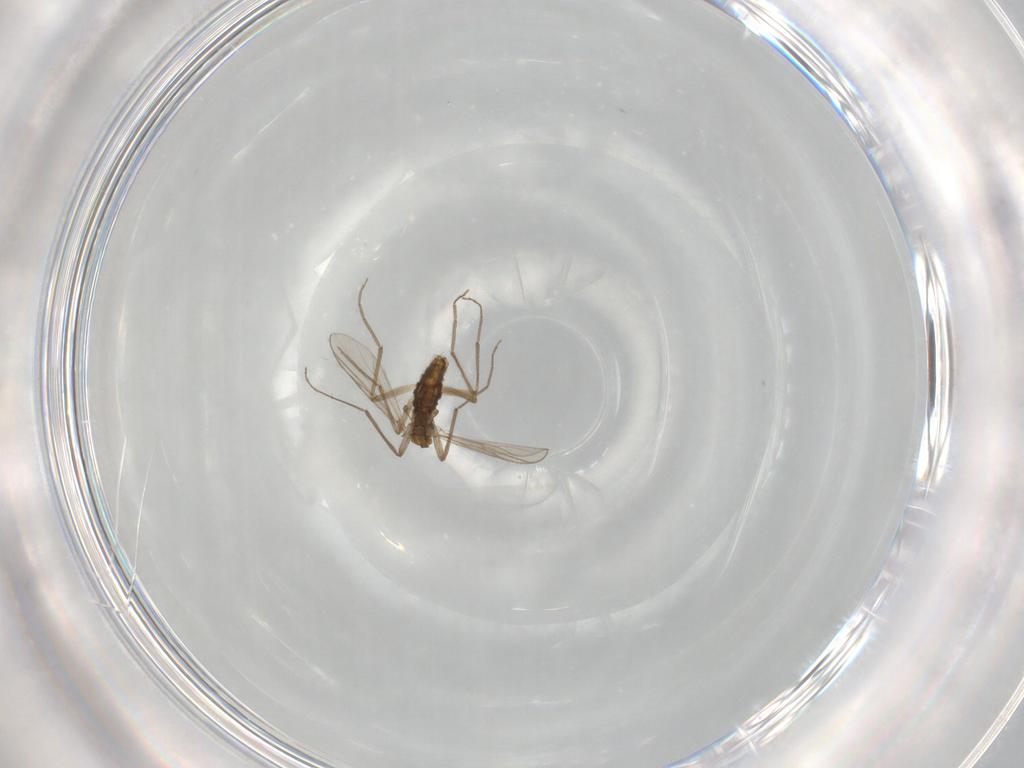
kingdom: Animalia
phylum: Arthropoda
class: Insecta
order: Diptera
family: Chironomidae
